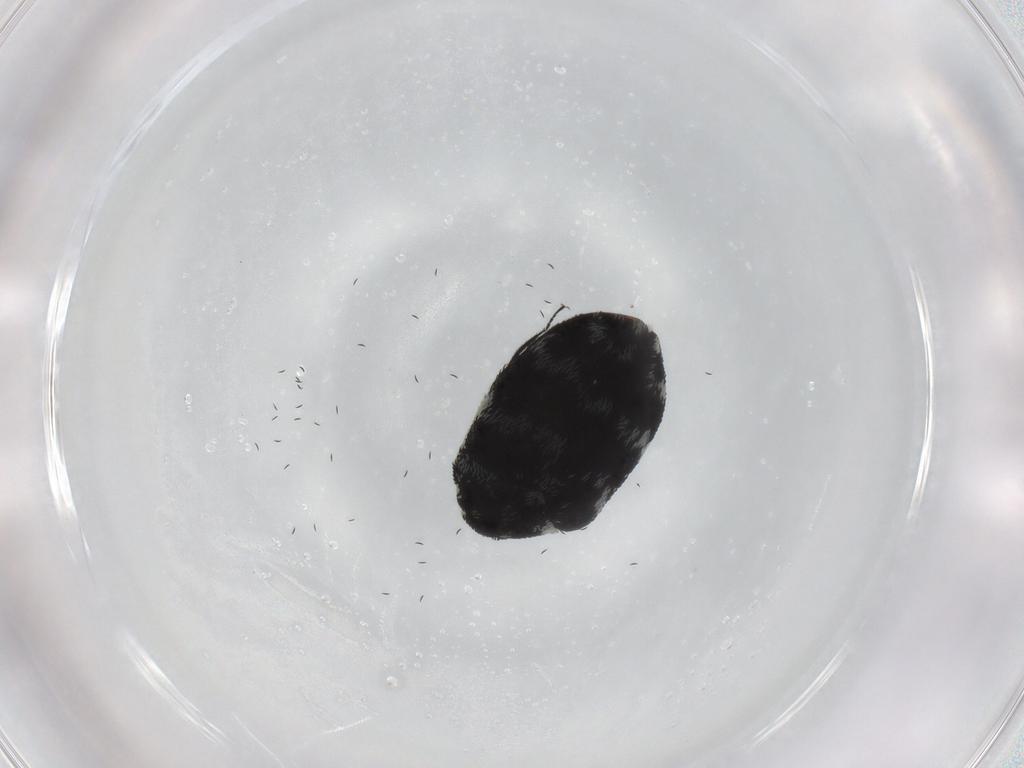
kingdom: Animalia
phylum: Arthropoda
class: Insecta
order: Coleoptera
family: Dermestidae
